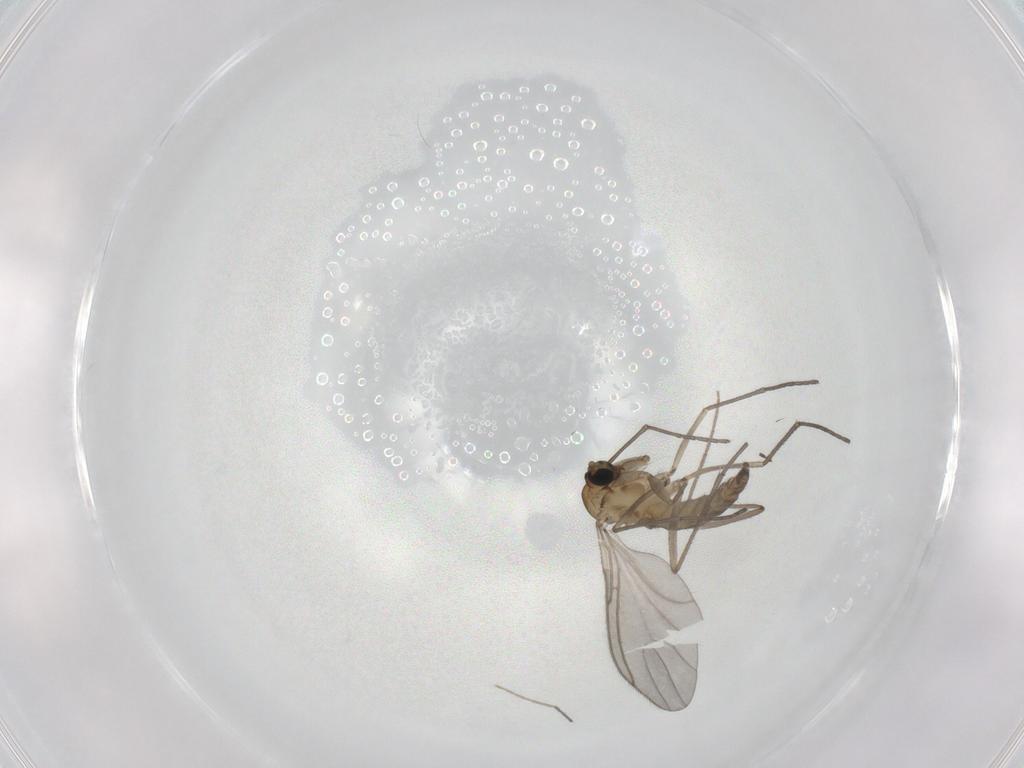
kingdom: Animalia
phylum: Arthropoda
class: Insecta
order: Diptera
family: Sciaridae
